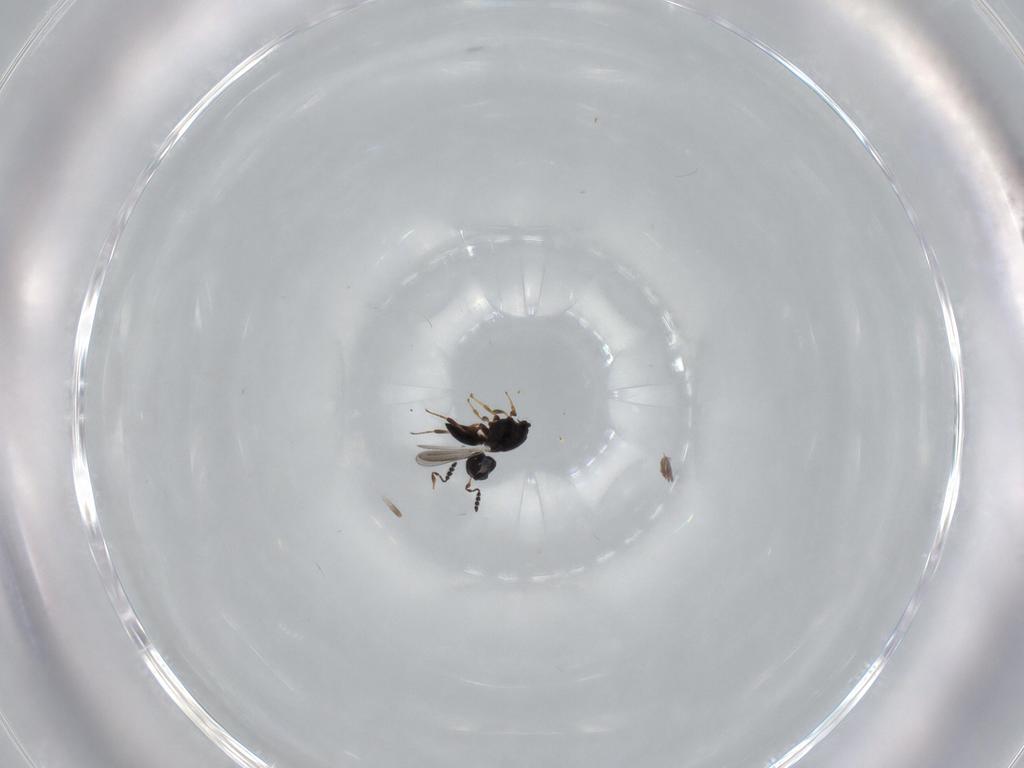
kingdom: Animalia
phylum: Arthropoda
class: Insecta
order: Hymenoptera
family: Platygastridae
